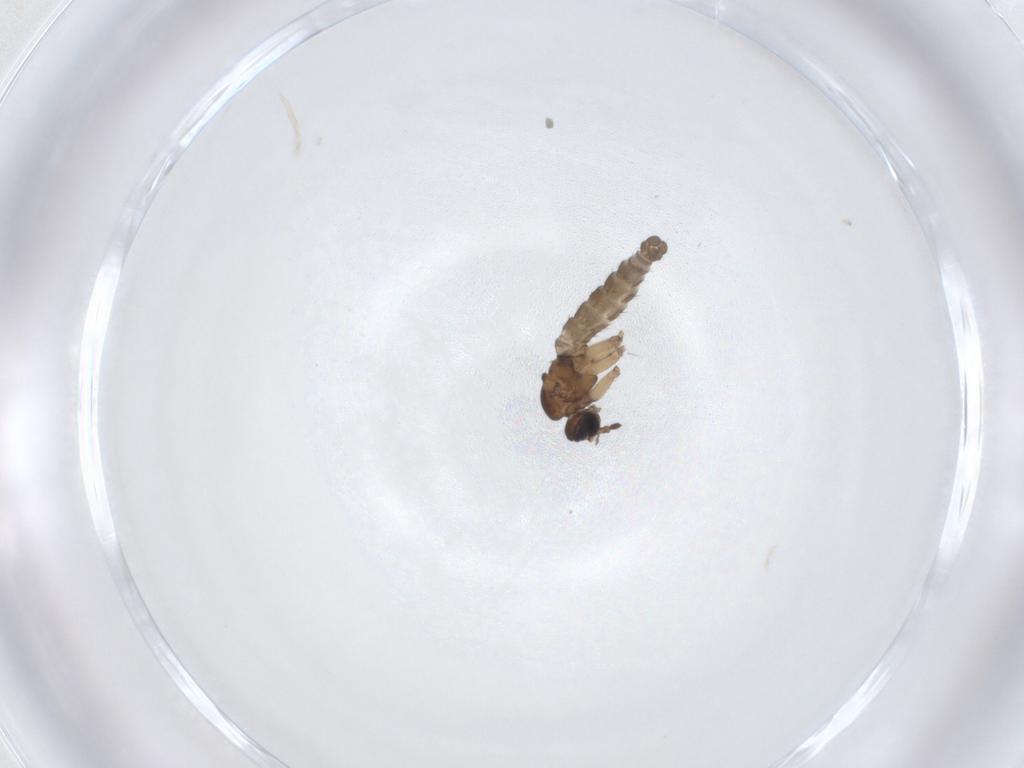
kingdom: Animalia
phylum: Arthropoda
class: Insecta
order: Diptera
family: Sciaridae
